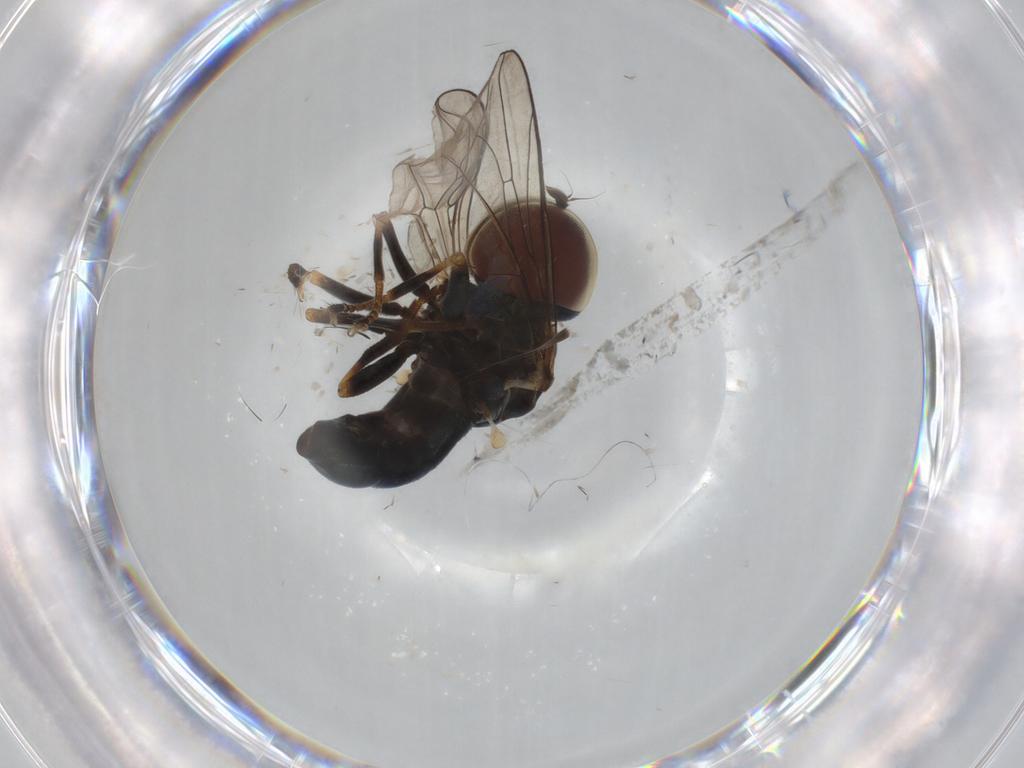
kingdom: Animalia
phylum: Arthropoda
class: Insecta
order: Diptera
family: Pipunculidae
